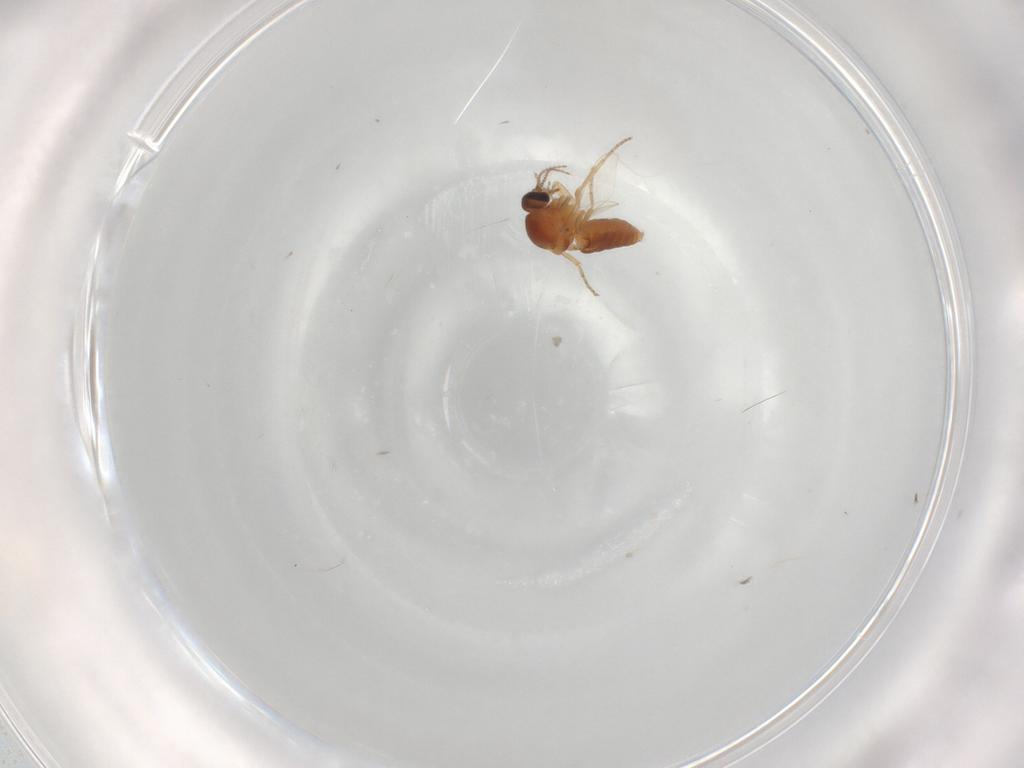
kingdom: Animalia
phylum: Arthropoda
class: Insecta
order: Diptera
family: Ceratopogonidae
